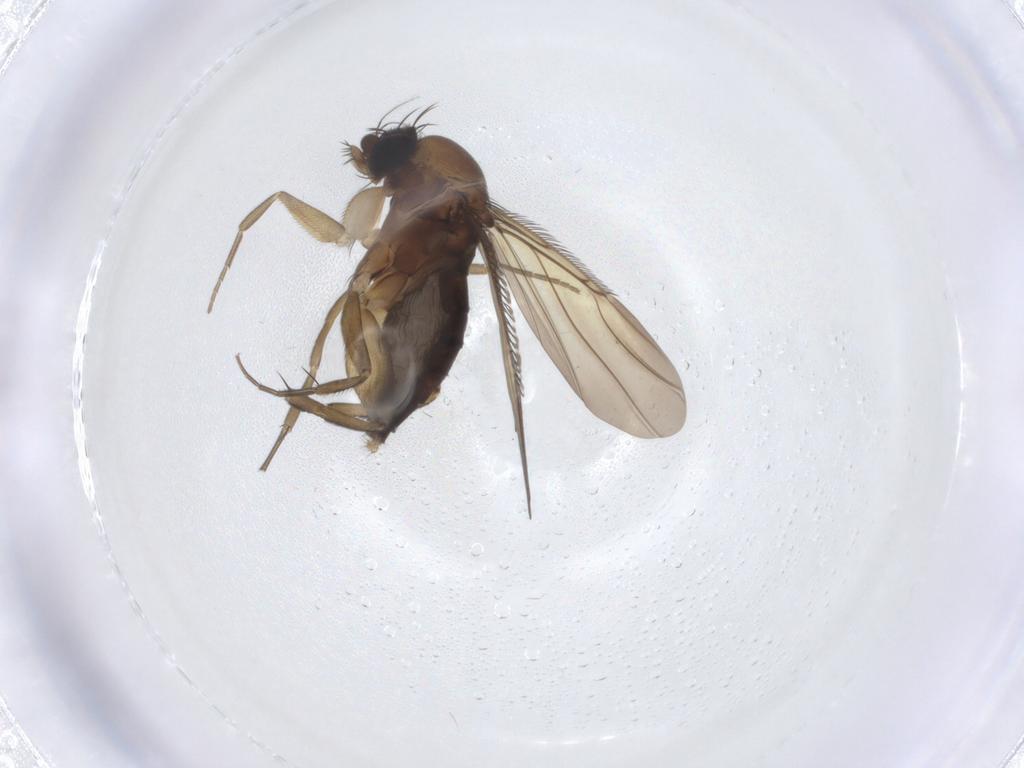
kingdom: Animalia
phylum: Arthropoda
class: Insecta
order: Diptera
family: Phoridae
